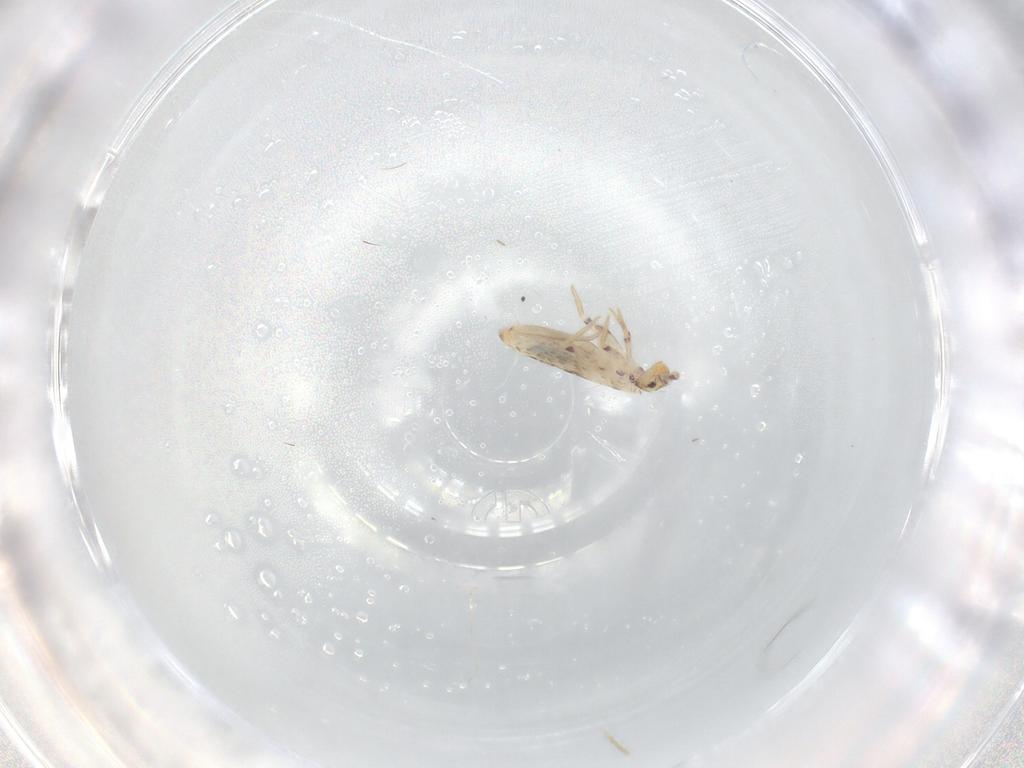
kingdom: Animalia
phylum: Arthropoda
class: Collembola
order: Entomobryomorpha
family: Entomobryidae
